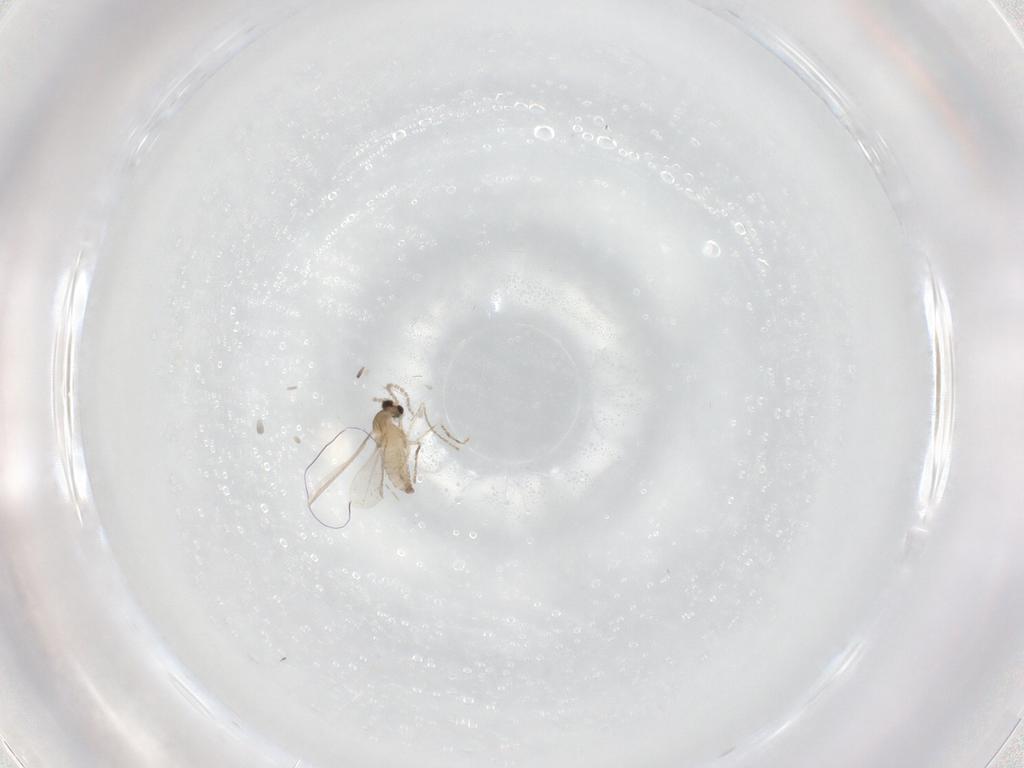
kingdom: Animalia
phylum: Arthropoda
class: Insecta
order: Diptera
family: Cecidomyiidae
